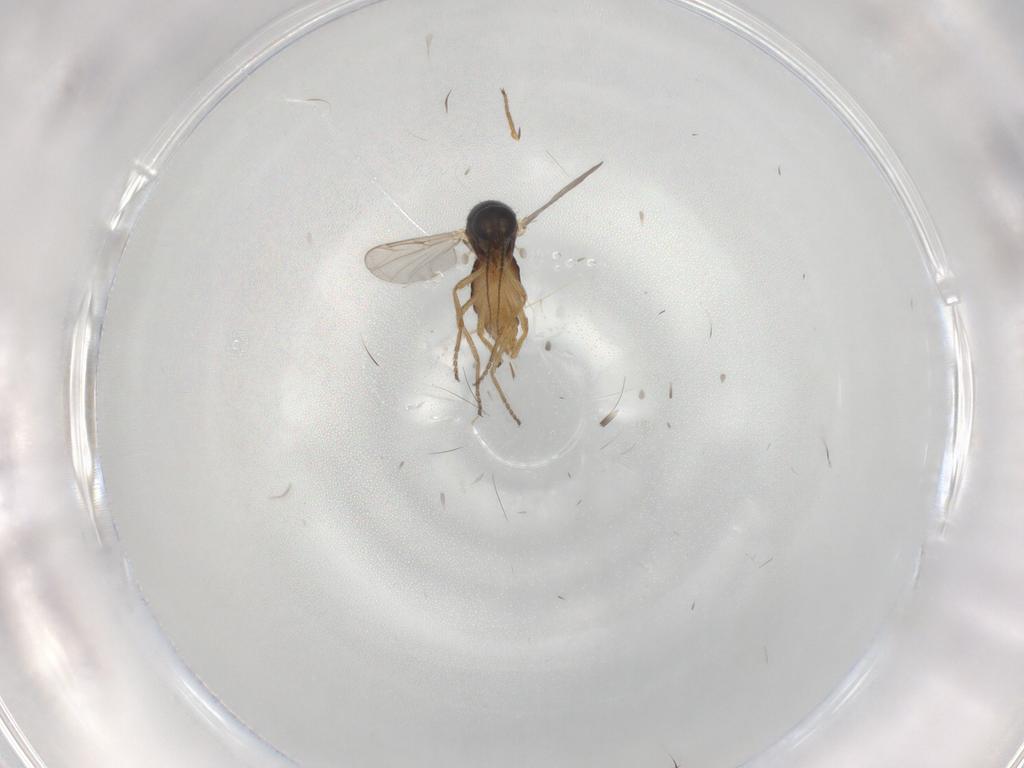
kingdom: Animalia
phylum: Arthropoda
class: Insecta
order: Diptera
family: Ceratopogonidae
